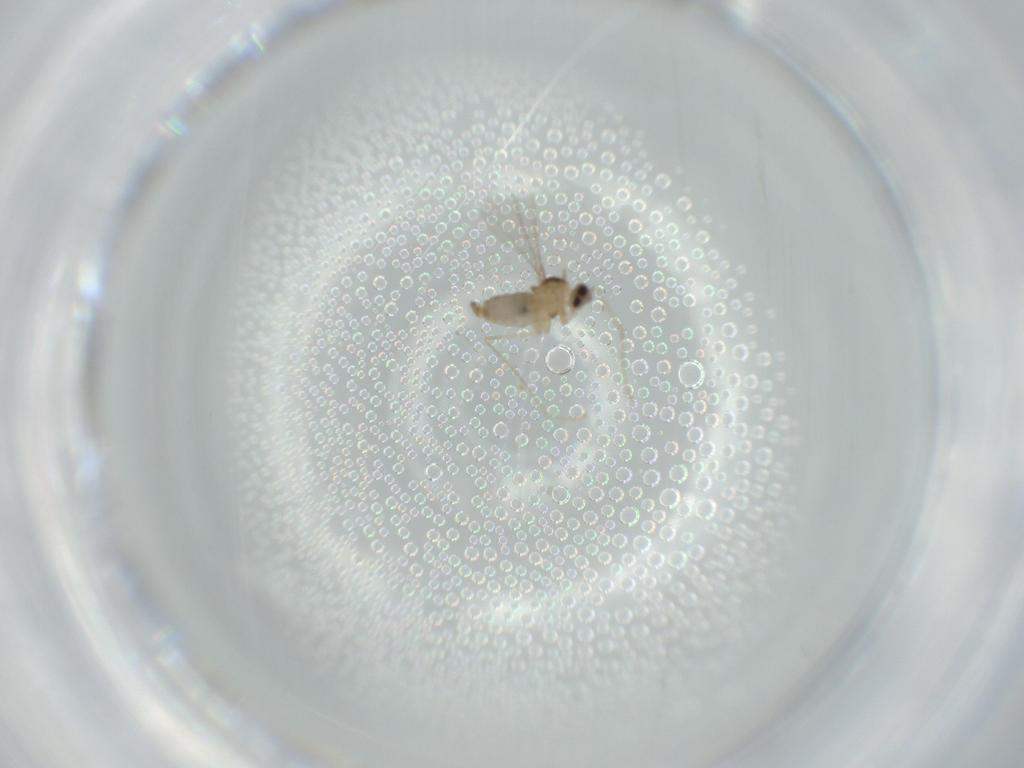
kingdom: Animalia
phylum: Arthropoda
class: Insecta
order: Diptera
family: Cecidomyiidae
